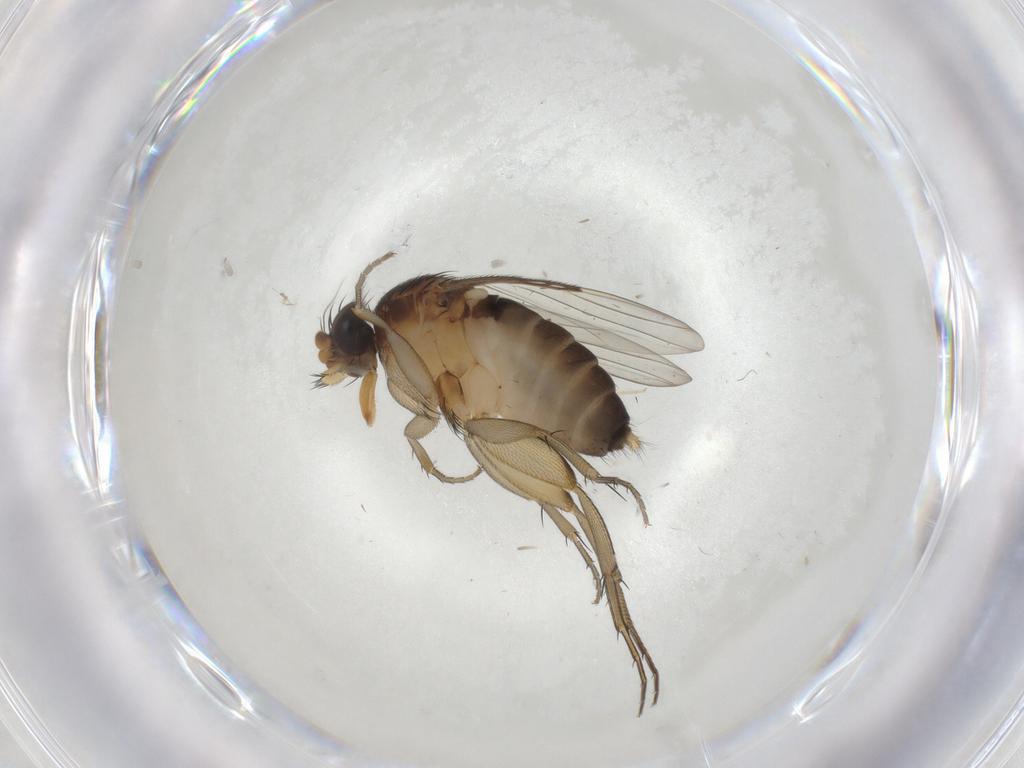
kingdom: Animalia
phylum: Arthropoda
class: Insecta
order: Diptera
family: Phoridae
